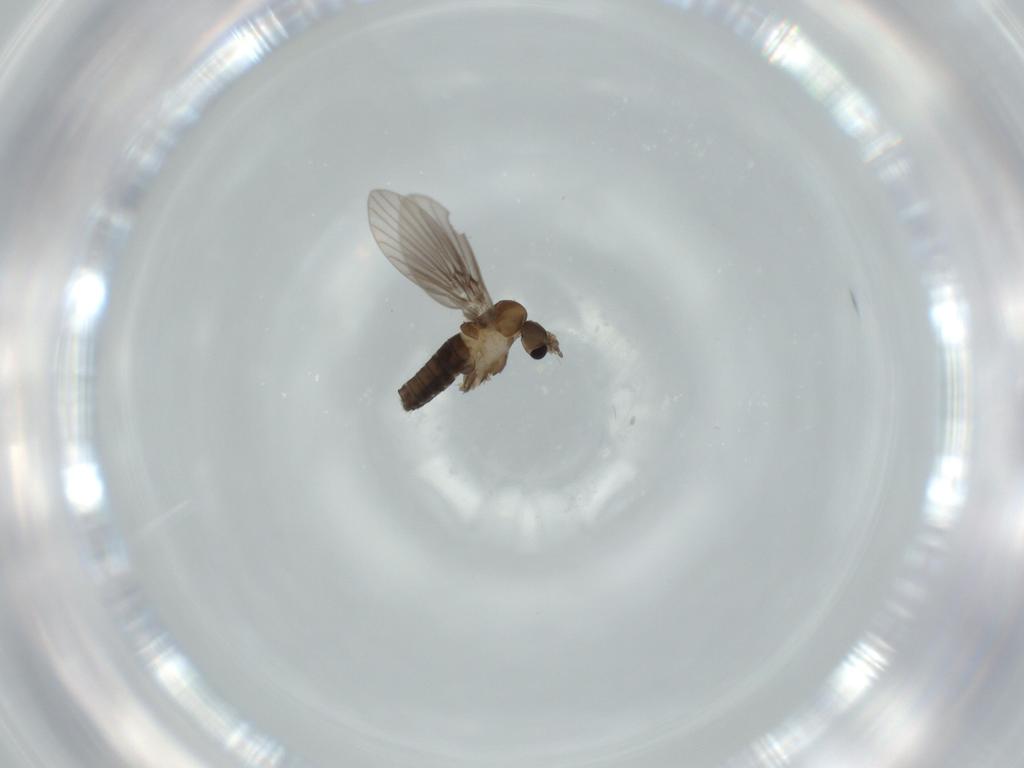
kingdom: Animalia
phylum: Arthropoda
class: Insecta
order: Diptera
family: Psychodidae
